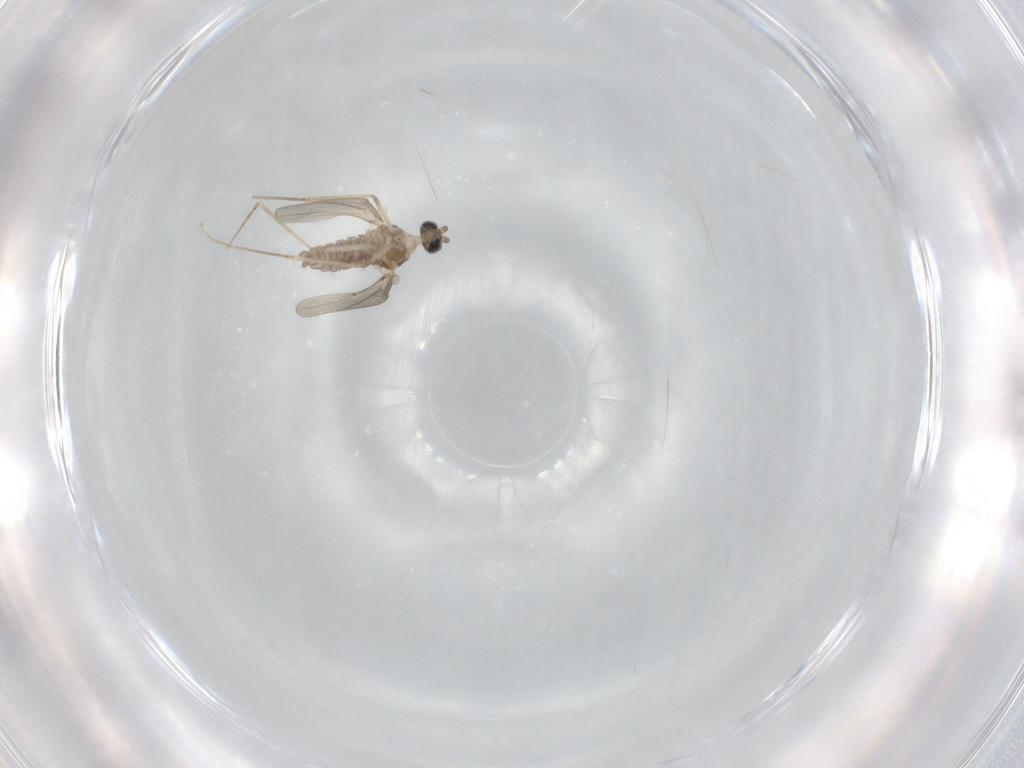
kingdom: Animalia
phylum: Arthropoda
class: Insecta
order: Diptera
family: Cecidomyiidae
